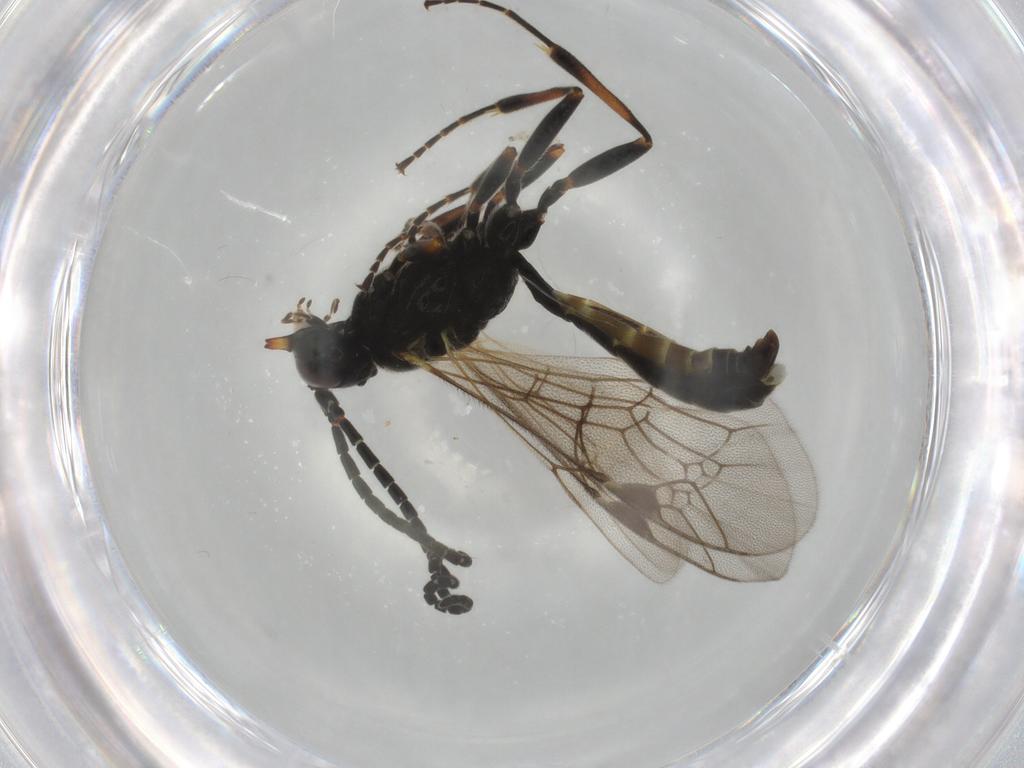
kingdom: Animalia
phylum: Arthropoda
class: Insecta
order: Hymenoptera
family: Ichneumonidae
